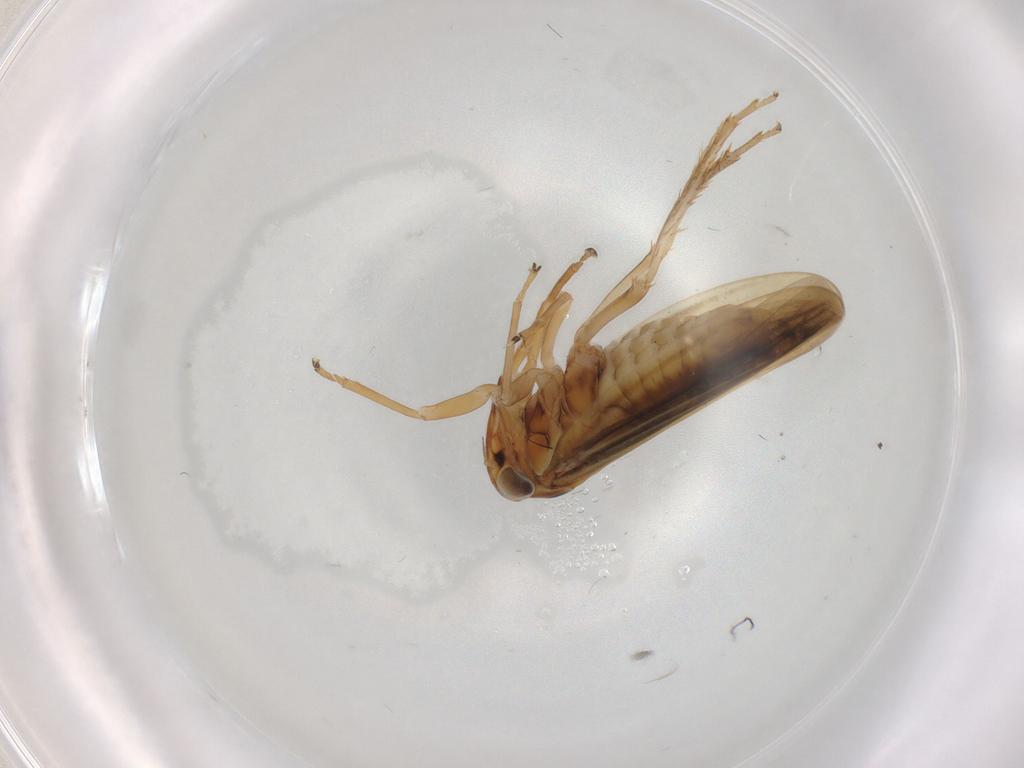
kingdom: Animalia
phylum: Arthropoda
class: Insecta
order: Hemiptera
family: Cicadellidae
